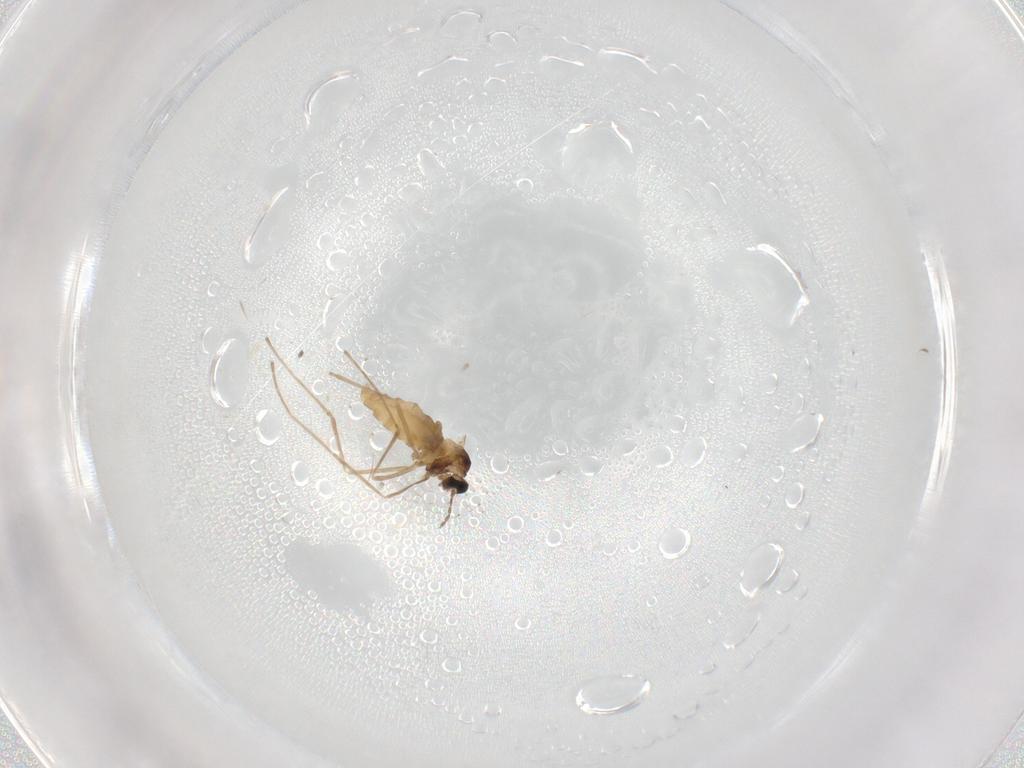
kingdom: Animalia
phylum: Arthropoda
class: Insecta
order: Diptera
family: Cecidomyiidae
